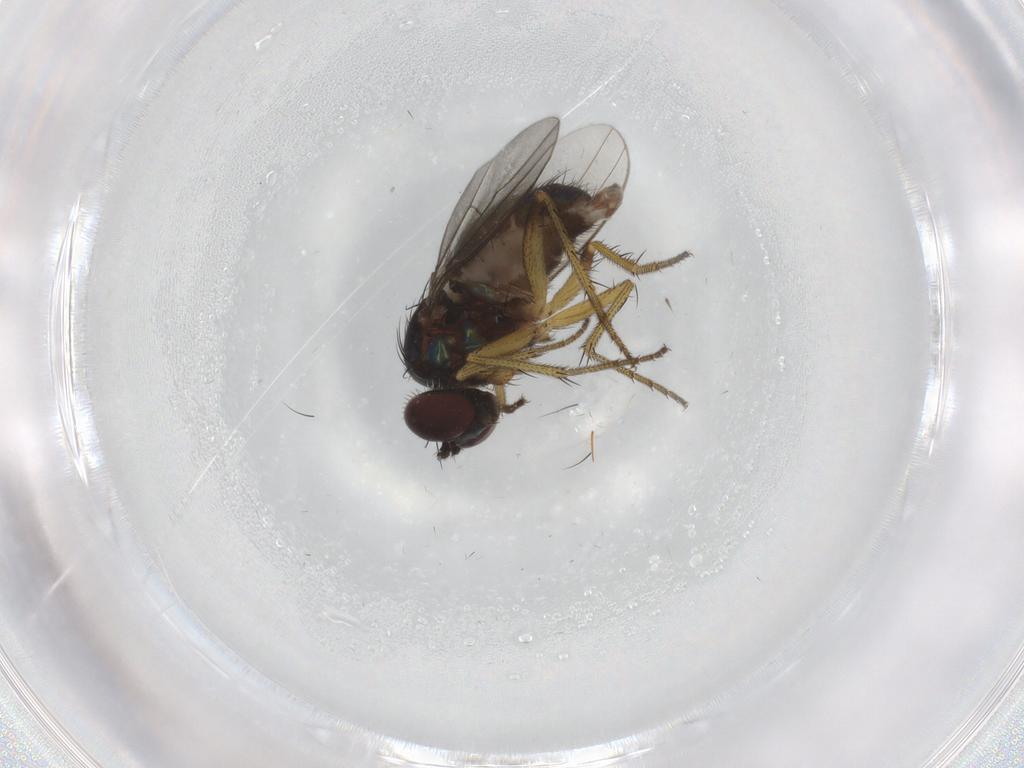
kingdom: Animalia
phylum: Arthropoda
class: Insecta
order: Diptera
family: Dolichopodidae
